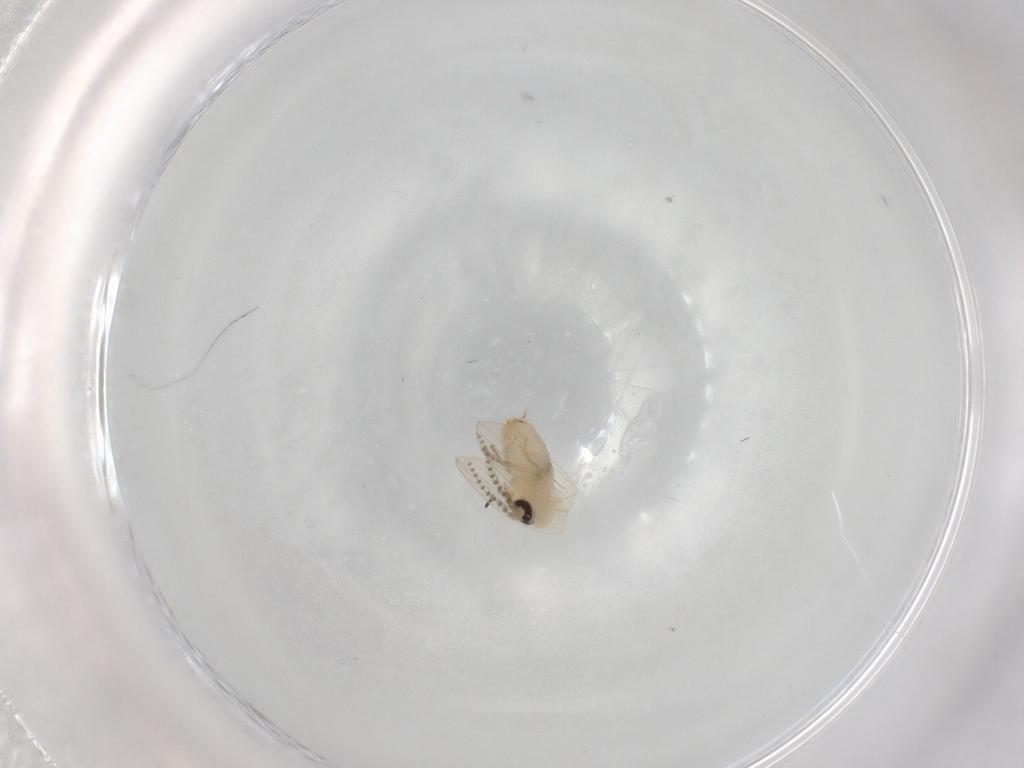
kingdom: Animalia
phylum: Arthropoda
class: Insecta
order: Diptera
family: Psychodidae
